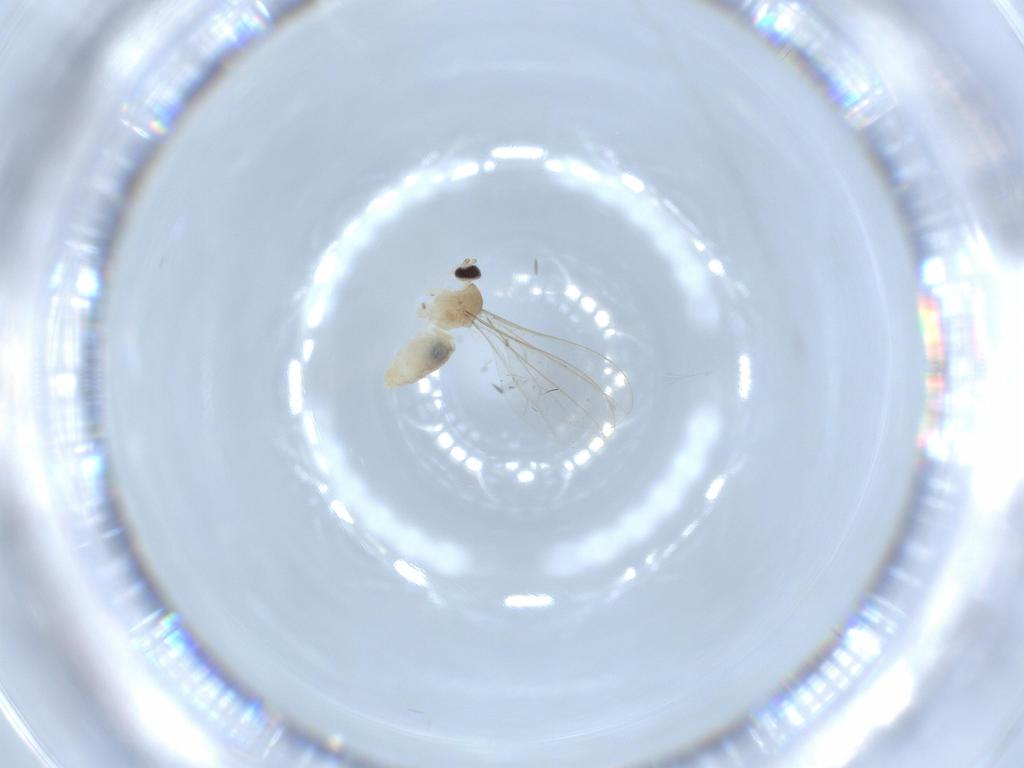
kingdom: Animalia
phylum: Arthropoda
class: Insecta
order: Diptera
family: Cecidomyiidae
